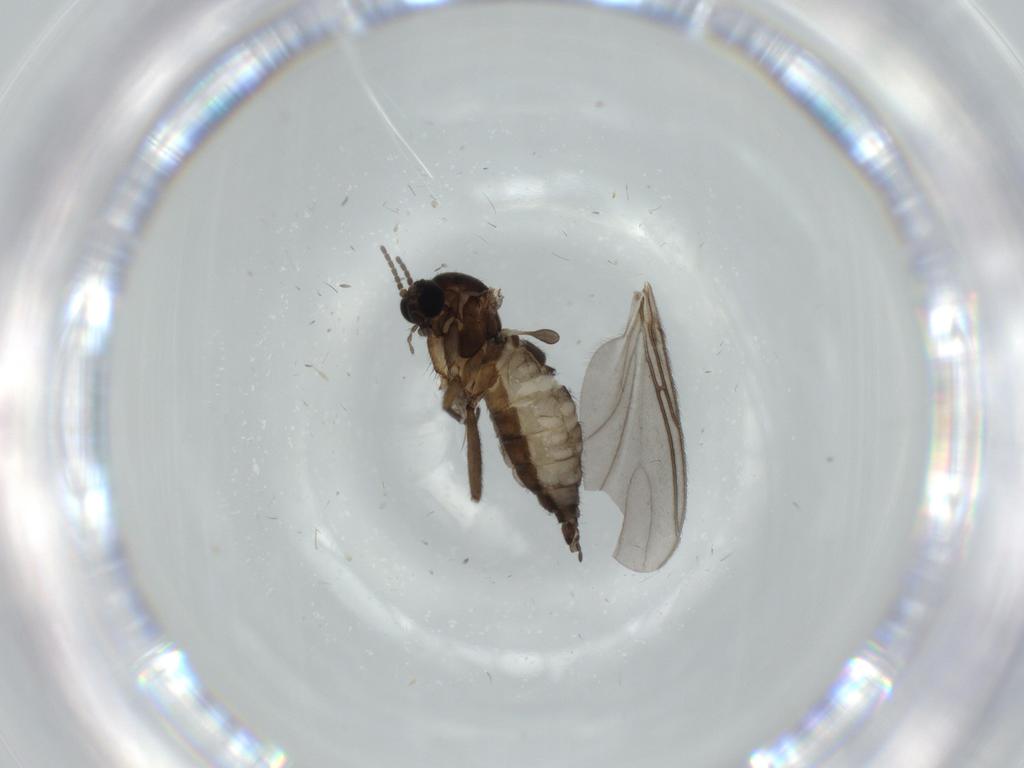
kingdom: Animalia
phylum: Arthropoda
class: Insecta
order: Diptera
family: Sciaridae
